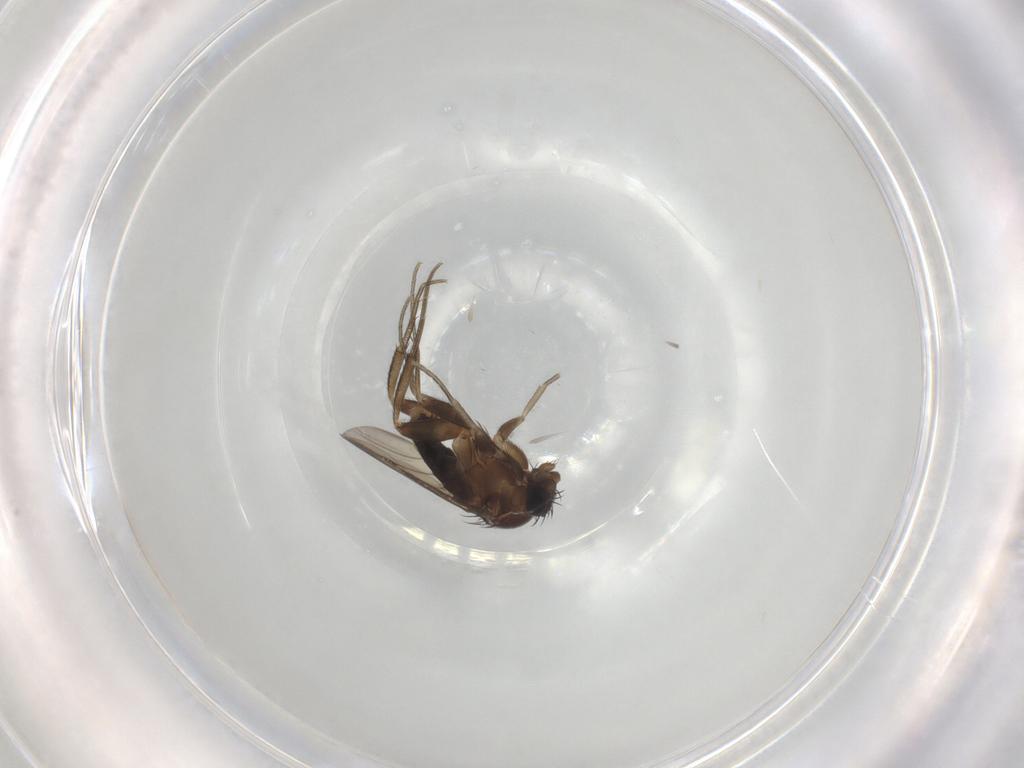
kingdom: Animalia
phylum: Arthropoda
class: Insecta
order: Diptera
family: Phoridae
